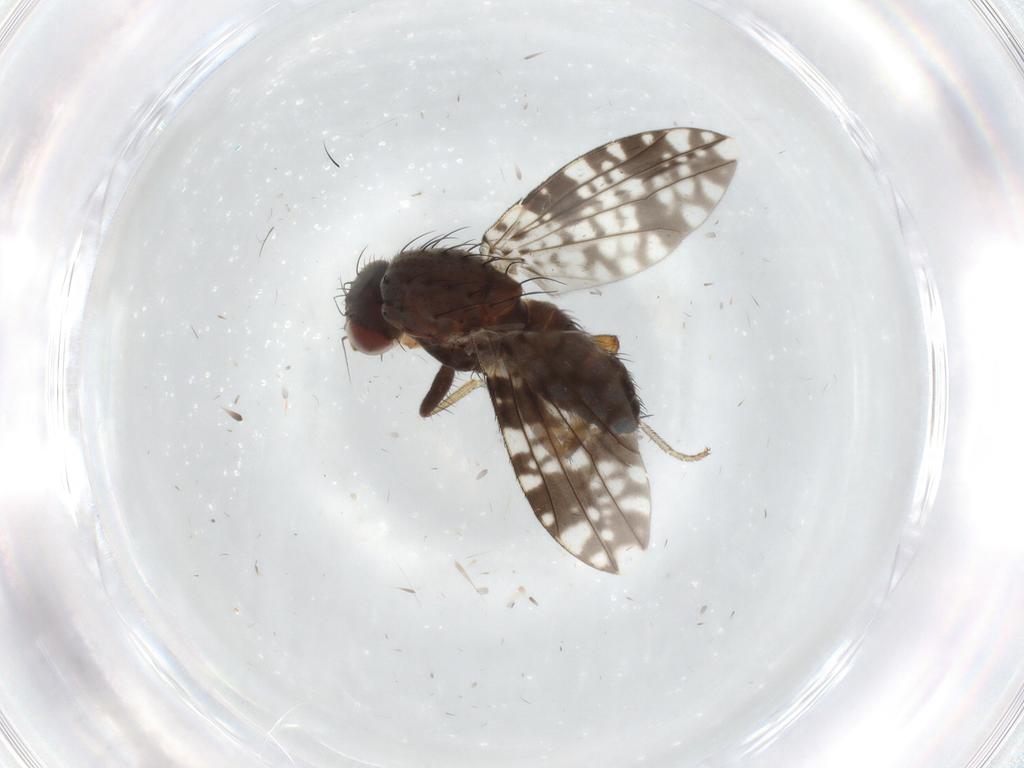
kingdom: Animalia
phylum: Arthropoda
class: Insecta
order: Diptera
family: Tephritidae
